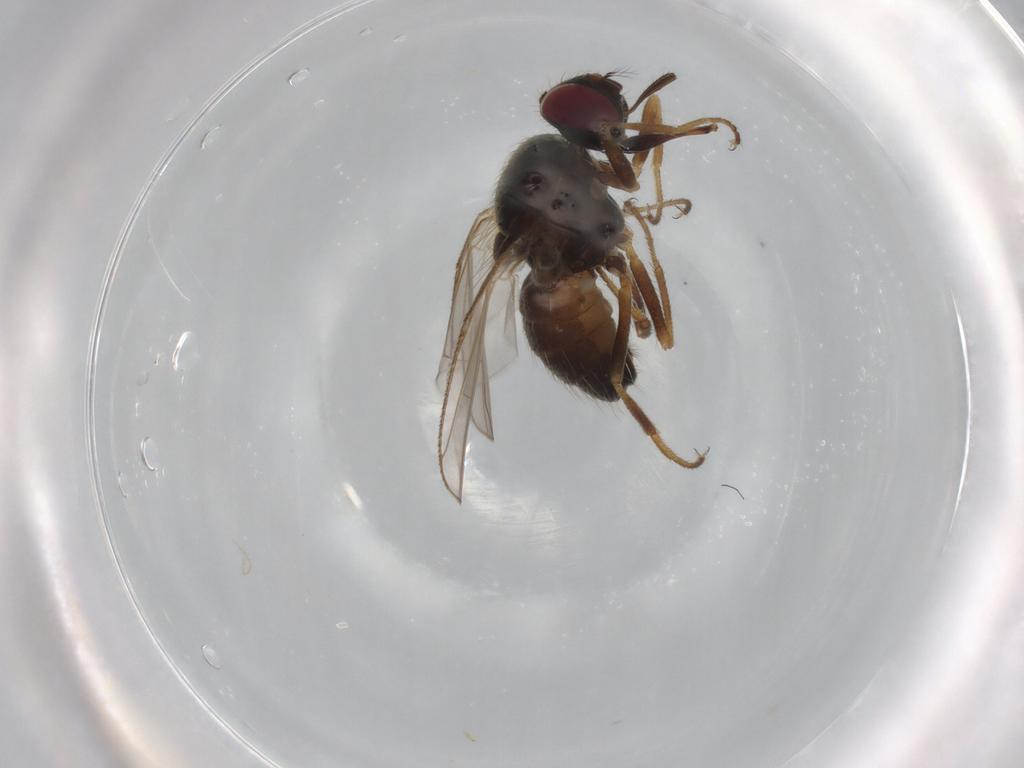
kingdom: Animalia
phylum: Arthropoda
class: Insecta
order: Diptera
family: Muscidae
